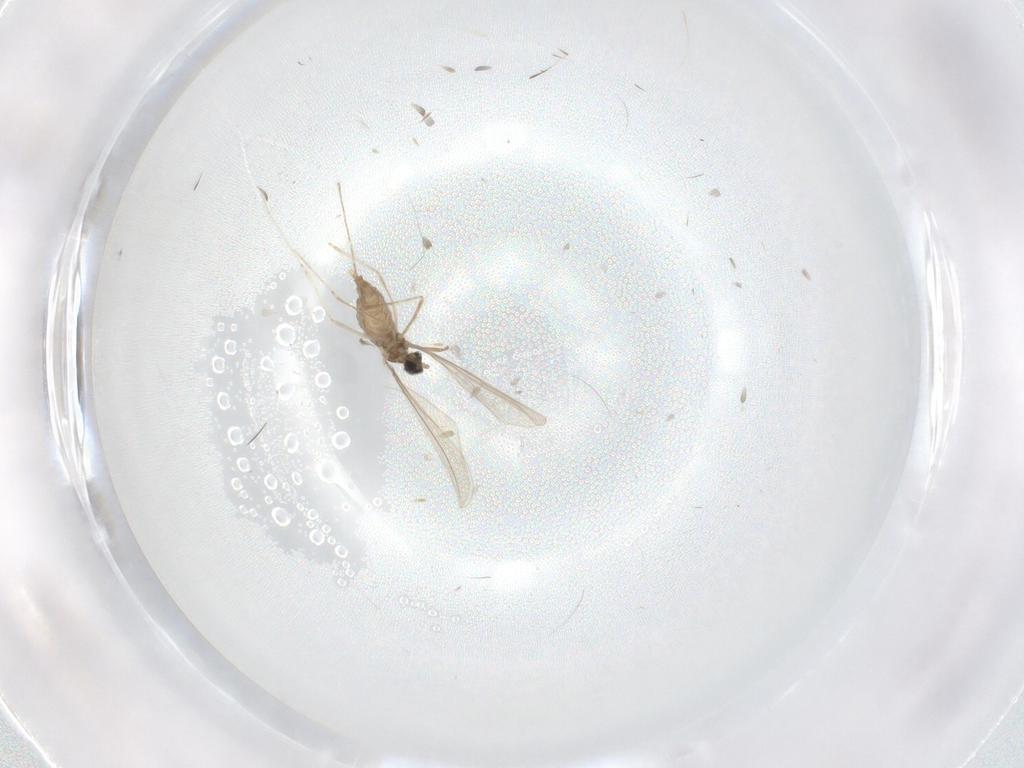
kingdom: Animalia
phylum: Arthropoda
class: Insecta
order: Diptera
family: Cecidomyiidae
